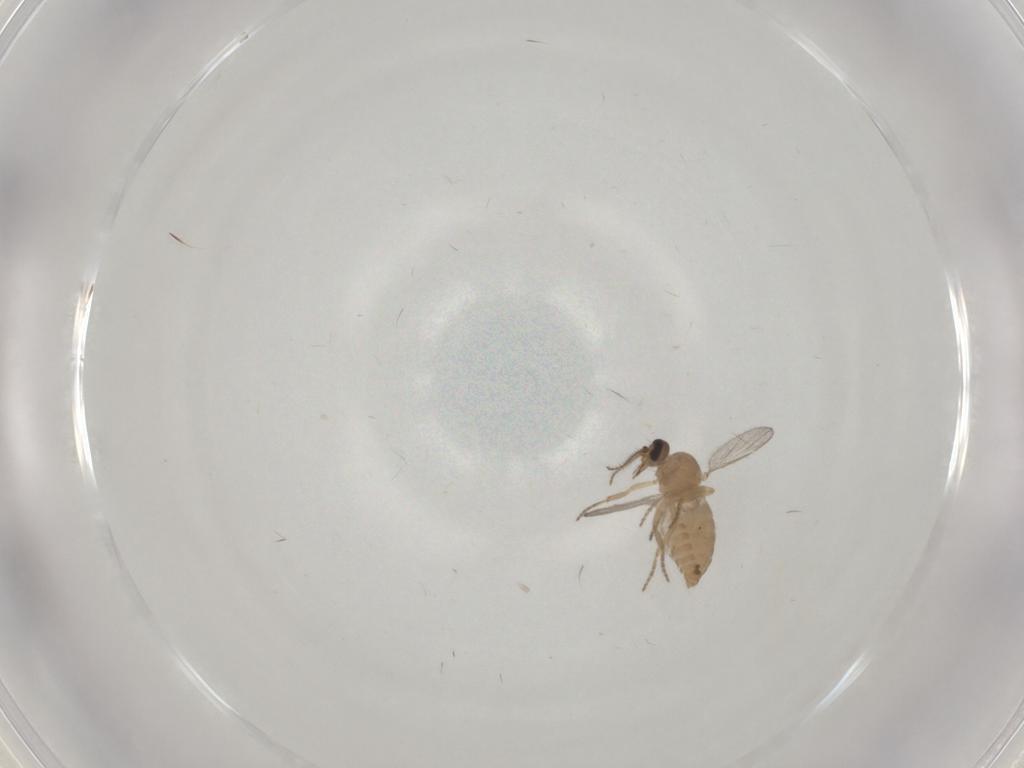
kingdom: Animalia
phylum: Arthropoda
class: Insecta
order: Diptera
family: Ceratopogonidae
